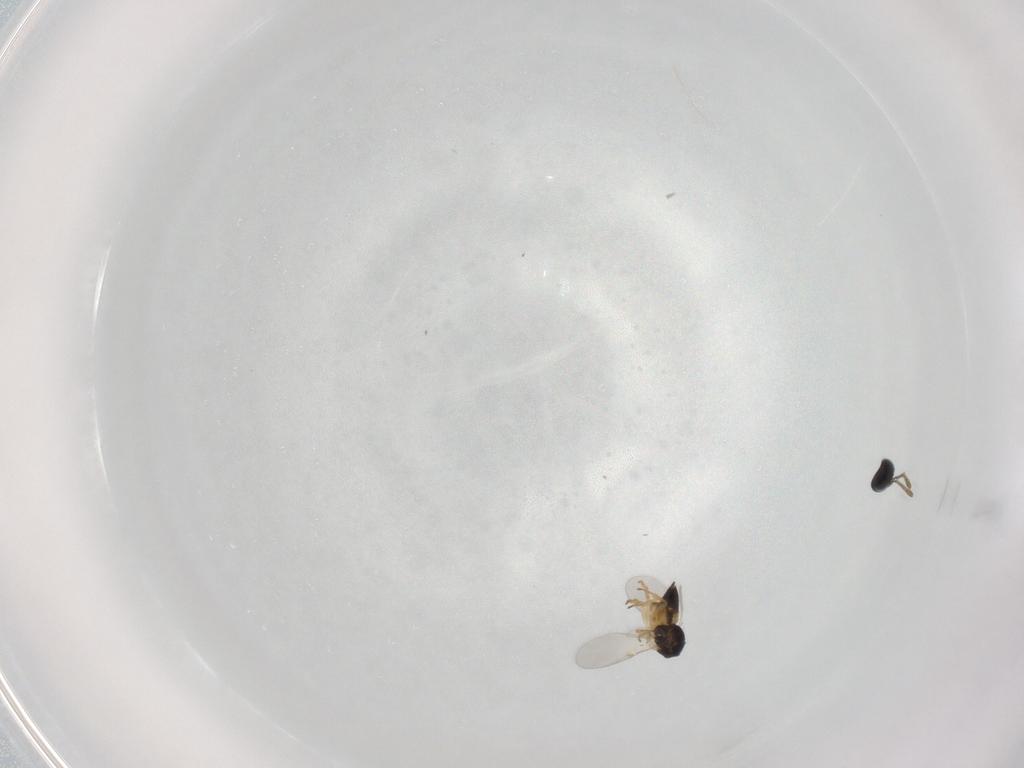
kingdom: Animalia
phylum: Arthropoda
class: Insecta
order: Hymenoptera
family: Encyrtidae
